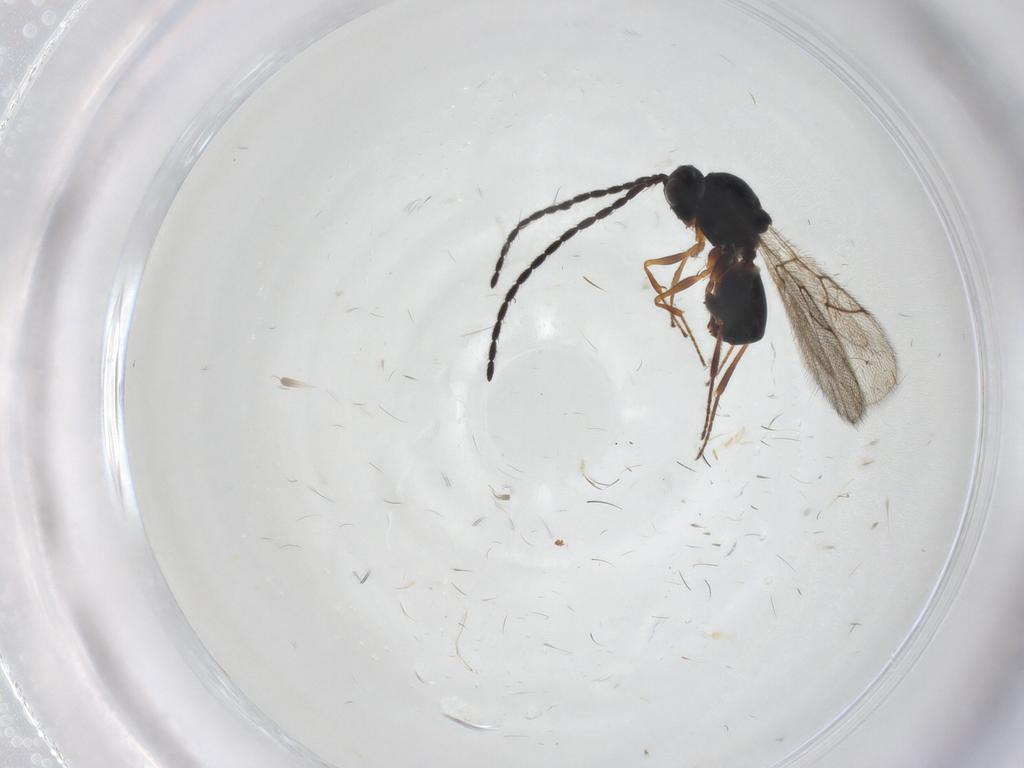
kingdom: Animalia
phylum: Arthropoda
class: Insecta
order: Hymenoptera
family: Figitidae
